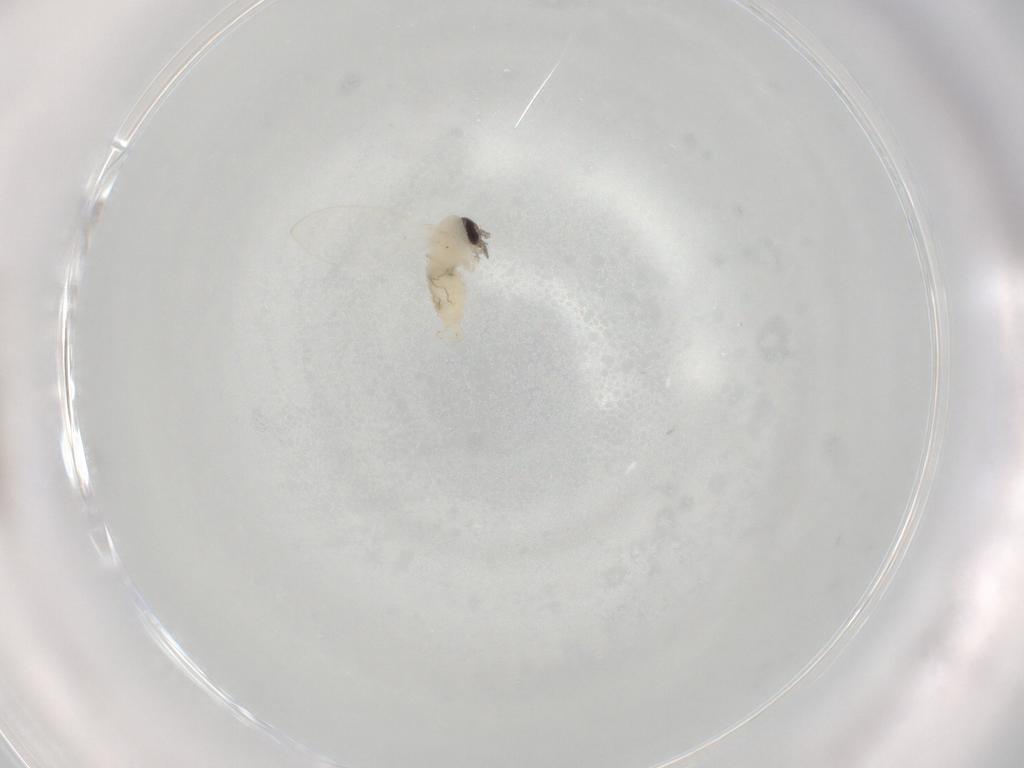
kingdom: Animalia
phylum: Arthropoda
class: Insecta
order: Diptera
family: Psychodidae
